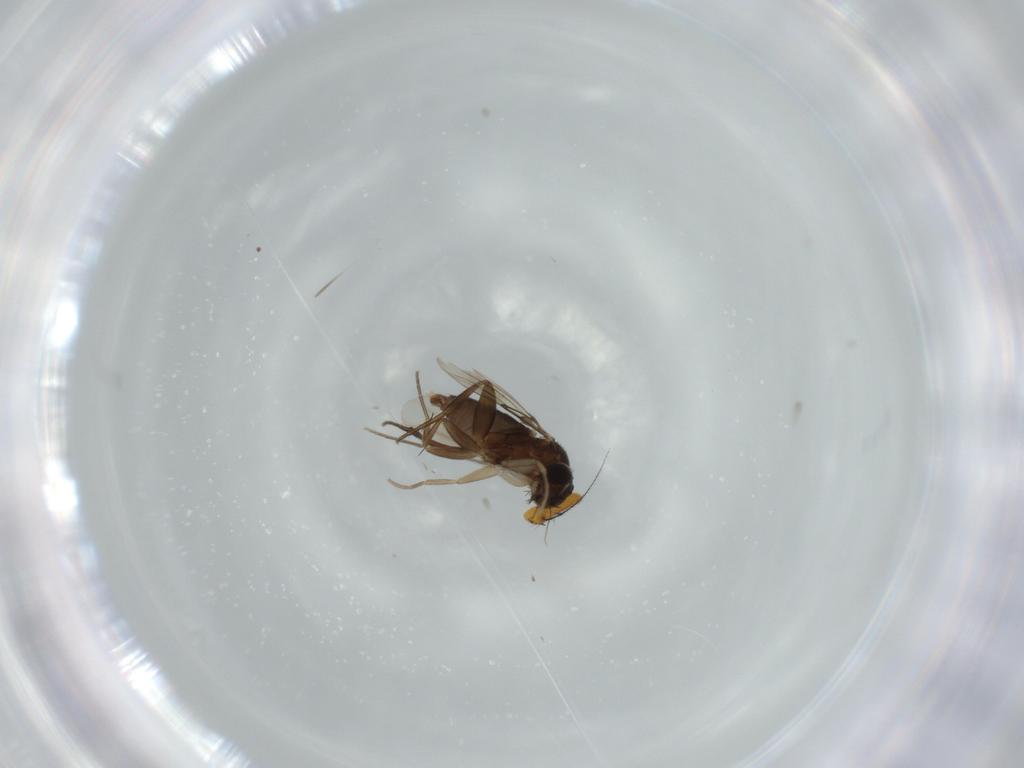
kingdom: Animalia
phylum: Arthropoda
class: Insecta
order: Diptera
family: Phoridae
